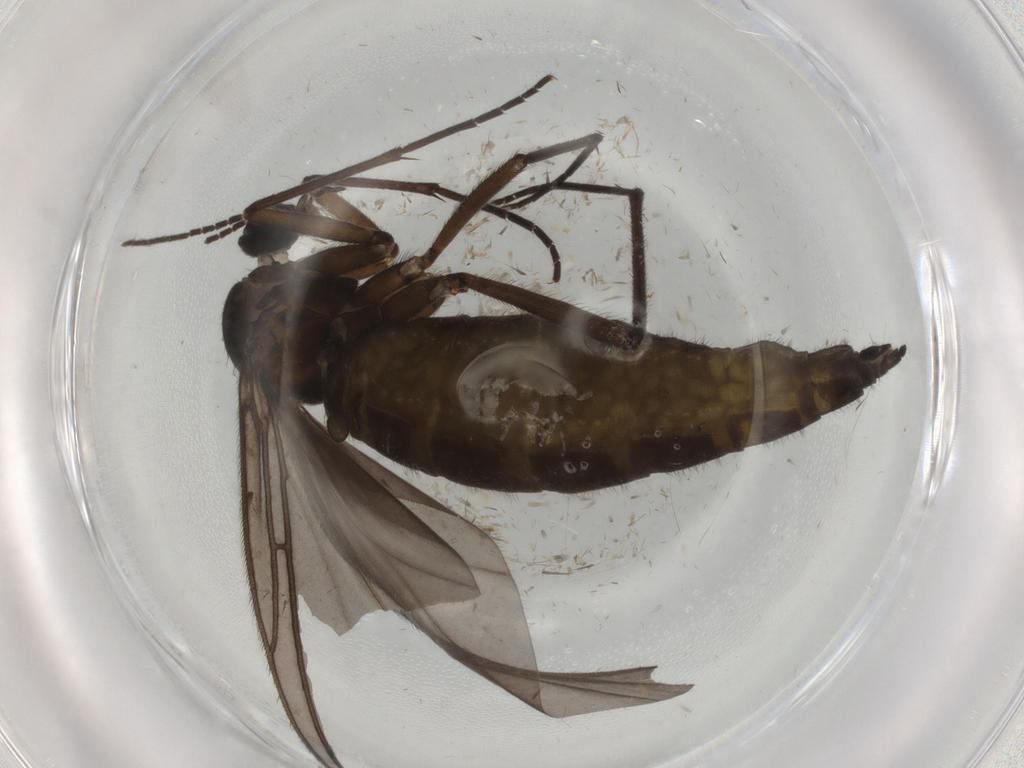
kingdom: Animalia
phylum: Arthropoda
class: Insecta
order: Diptera
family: Sciaridae
